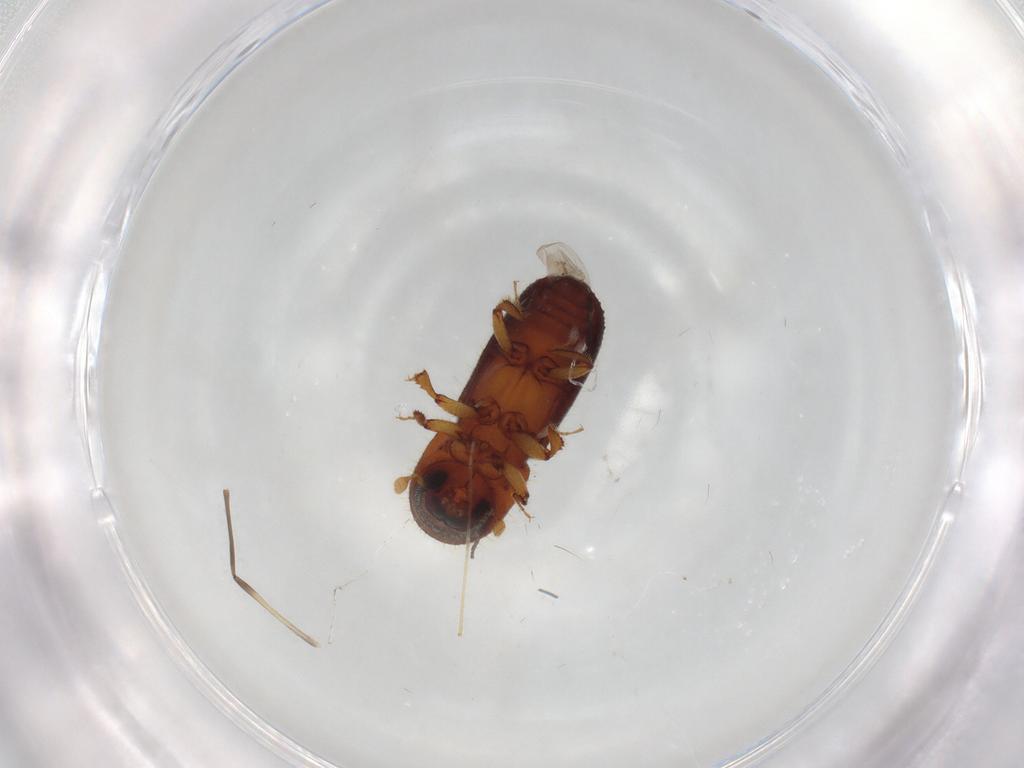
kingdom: Animalia
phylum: Arthropoda
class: Insecta
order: Coleoptera
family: Curculionidae
